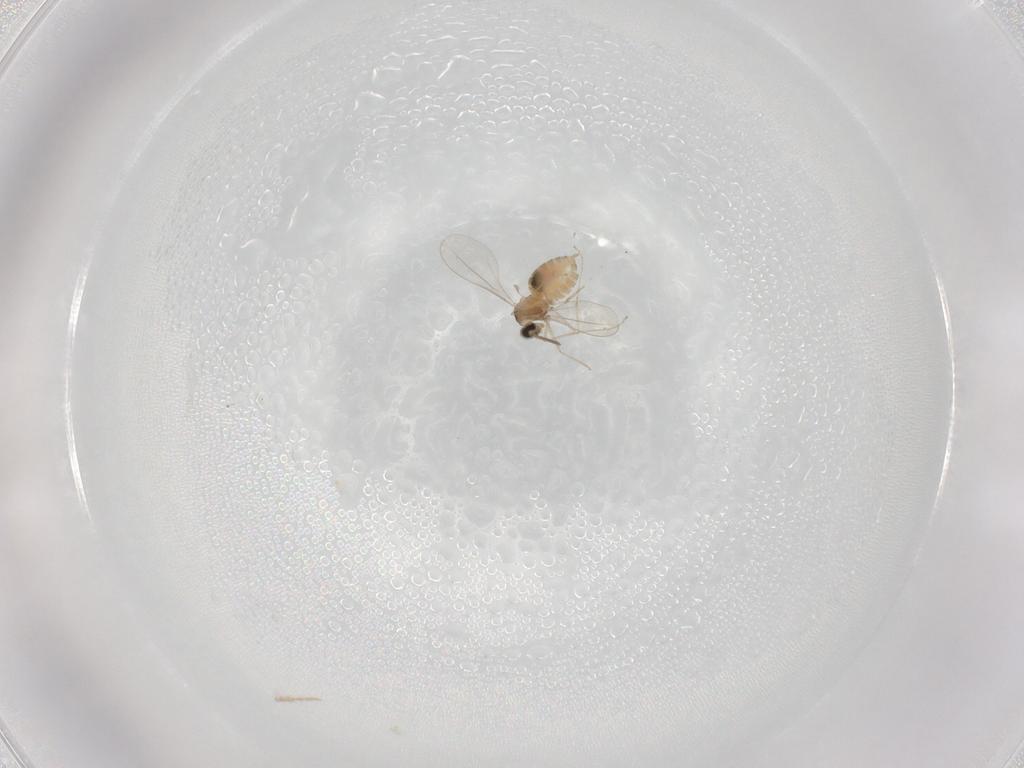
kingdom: Animalia
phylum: Arthropoda
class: Insecta
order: Diptera
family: Cecidomyiidae
